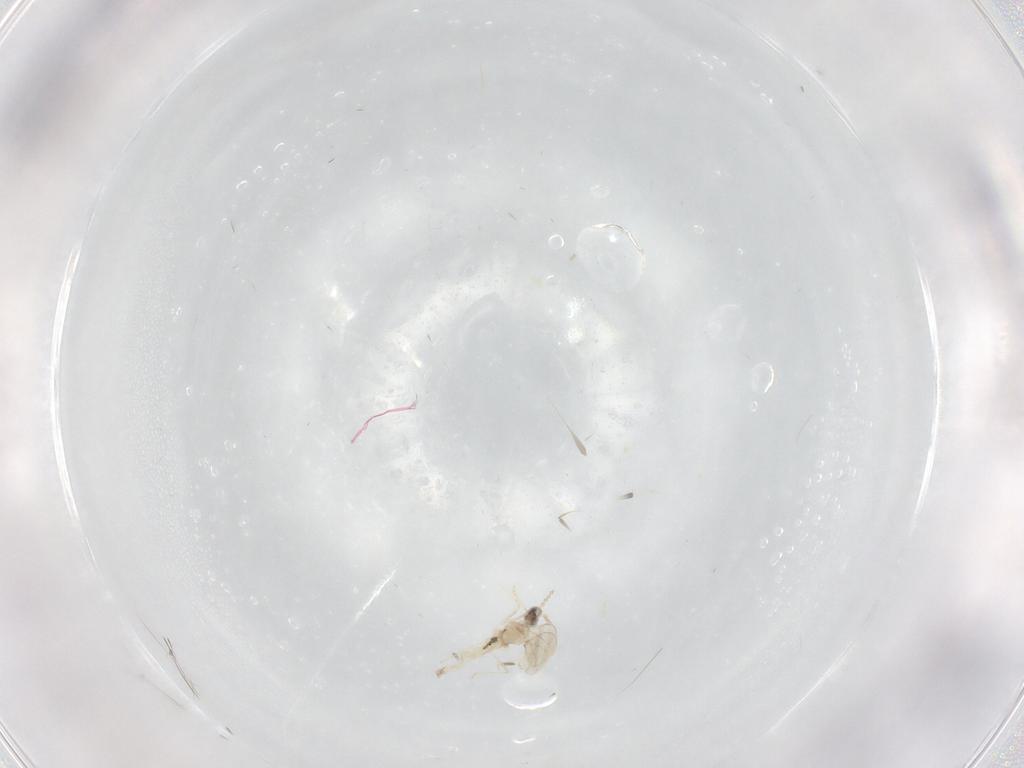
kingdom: Animalia
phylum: Arthropoda
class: Insecta
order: Diptera
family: Cecidomyiidae
